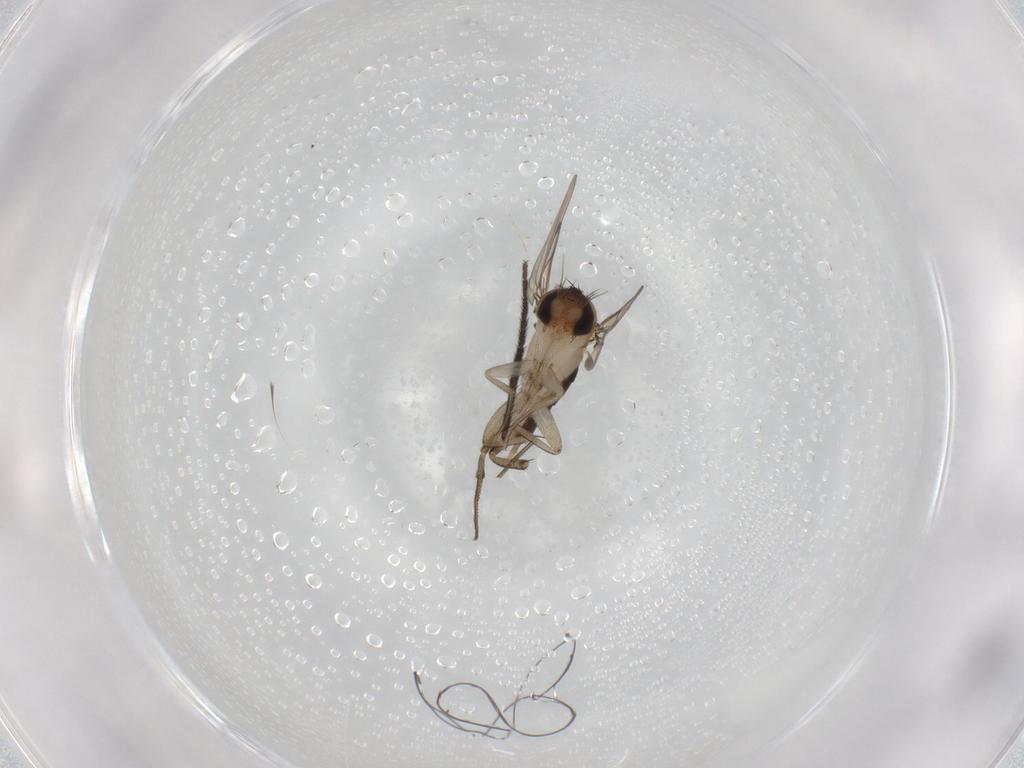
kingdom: Animalia
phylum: Arthropoda
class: Insecta
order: Diptera
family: Phoridae
